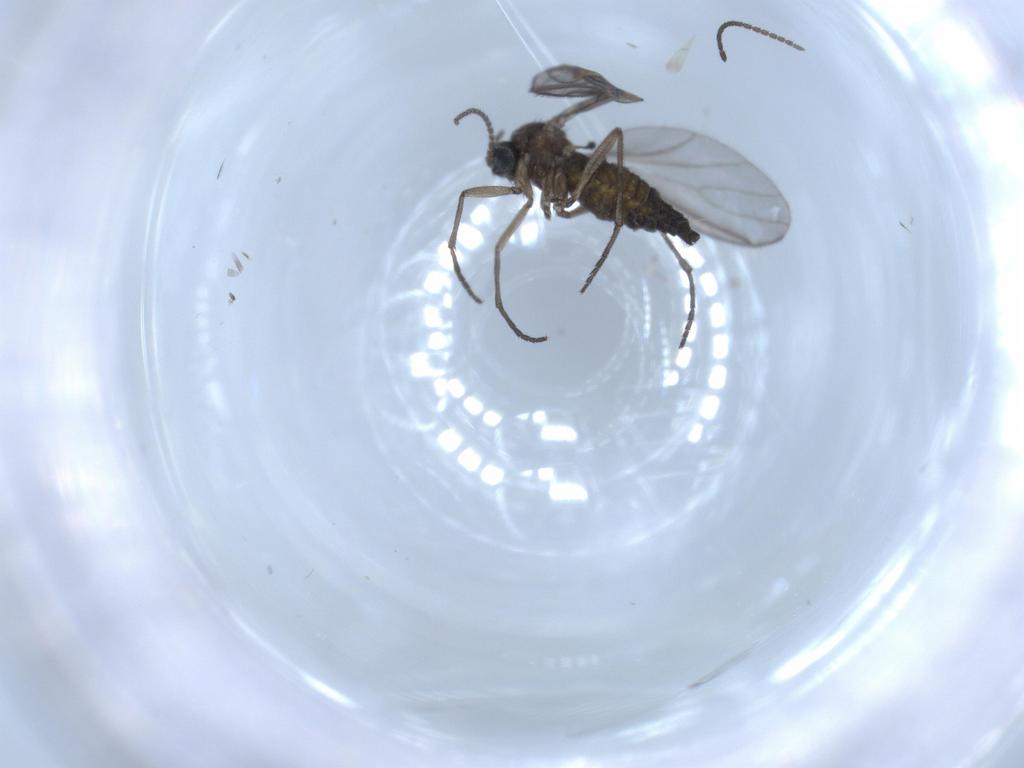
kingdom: Animalia
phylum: Arthropoda
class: Insecta
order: Diptera
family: Sciaridae
